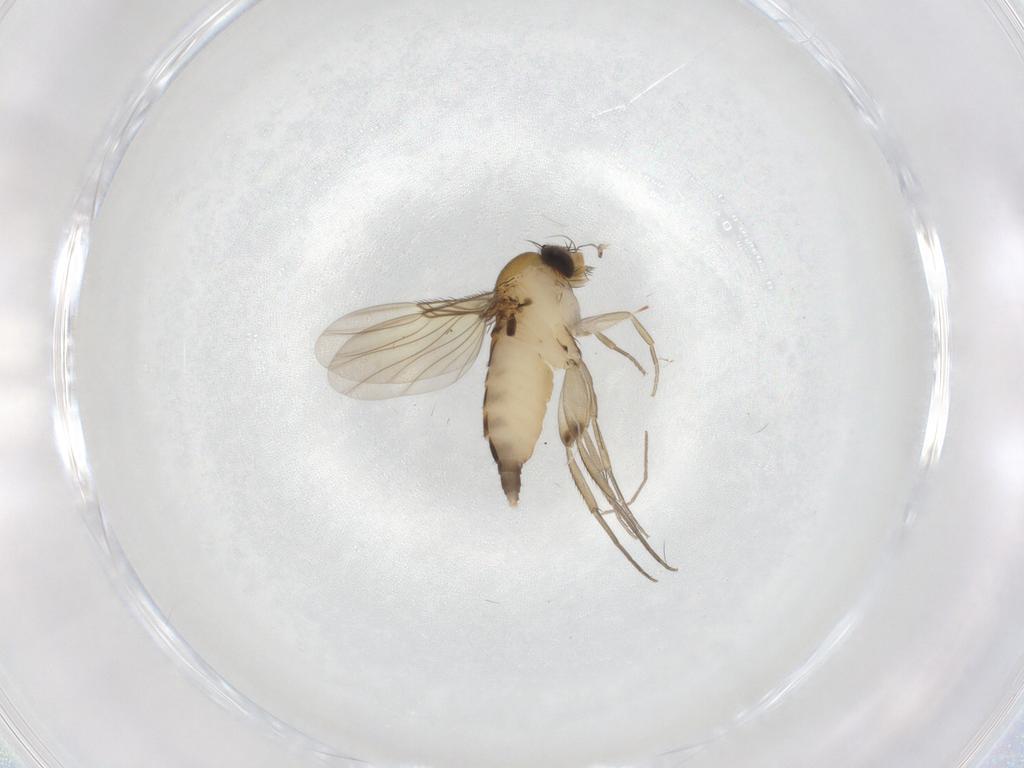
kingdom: Animalia
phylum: Arthropoda
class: Insecta
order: Diptera
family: Phoridae
